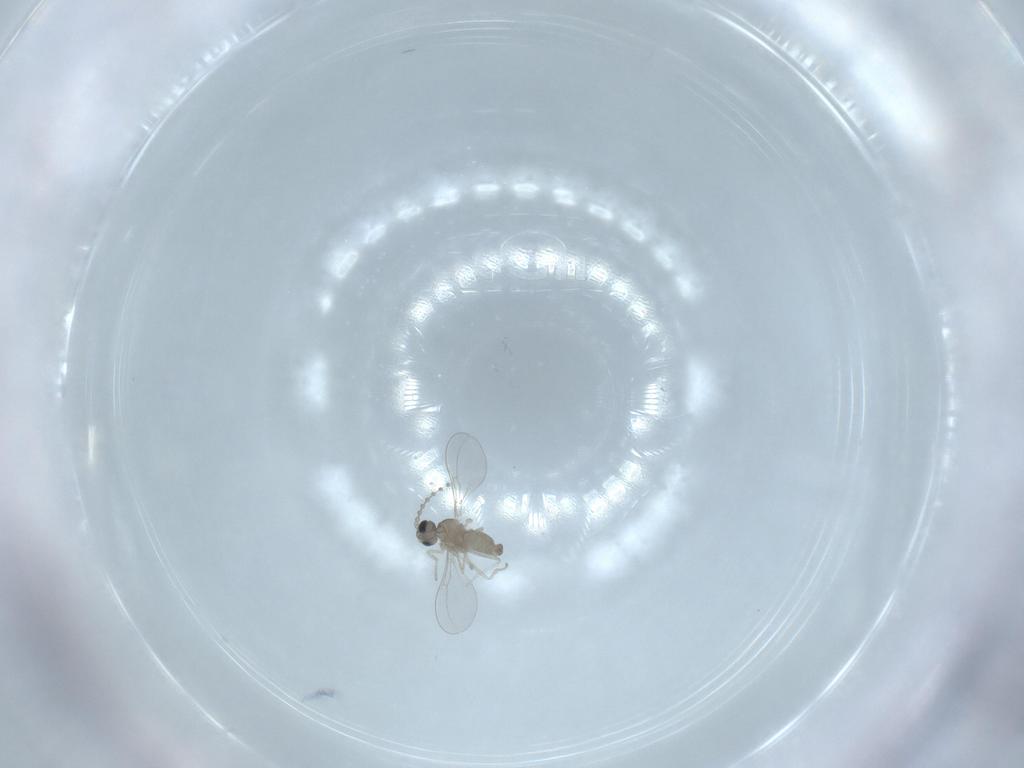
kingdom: Animalia
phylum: Arthropoda
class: Insecta
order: Diptera
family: Cecidomyiidae
